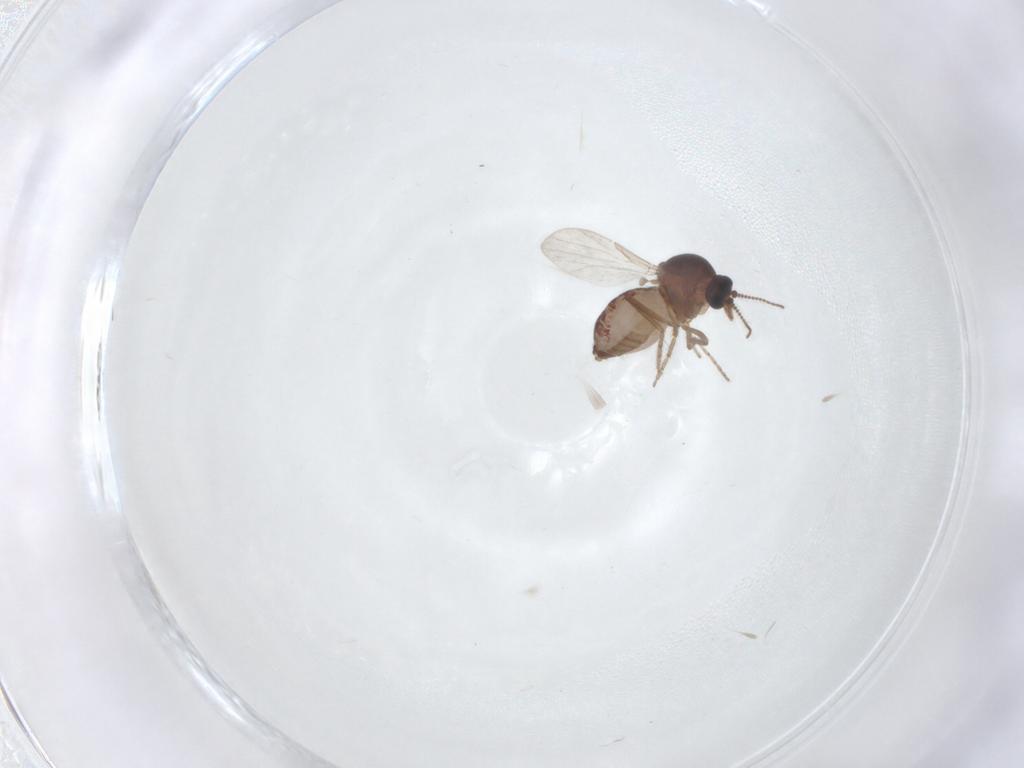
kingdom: Animalia
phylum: Arthropoda
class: Insecta
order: Diptera
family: Ceratopogonidae
